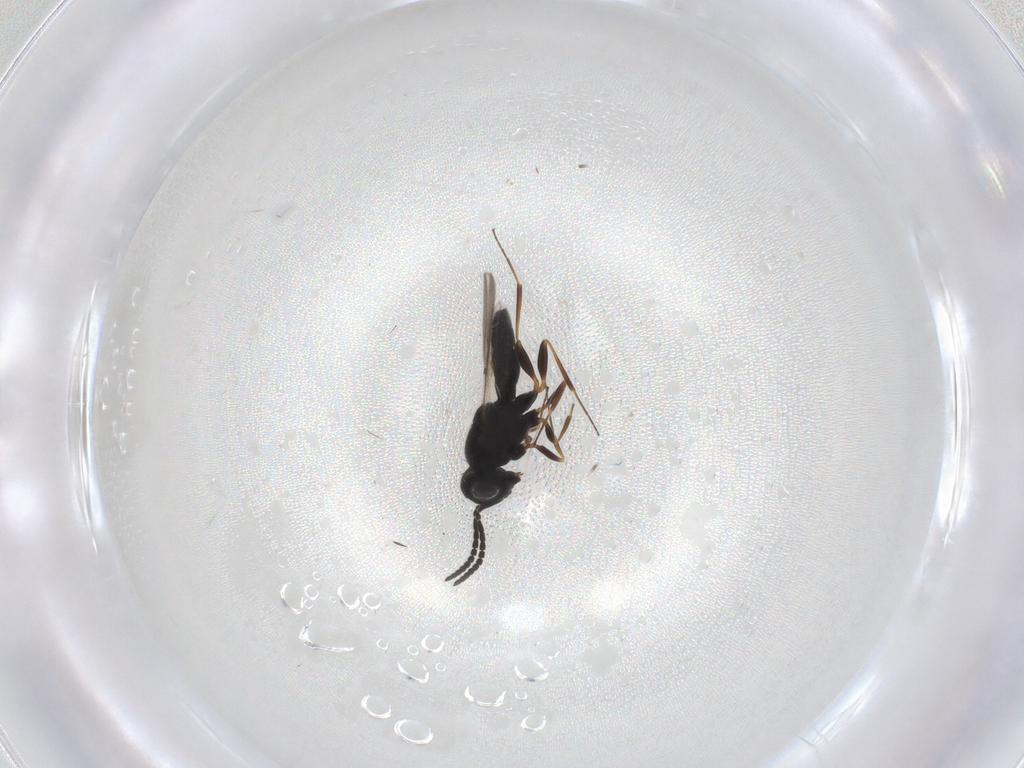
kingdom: Animalia
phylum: Arthropoda
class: Insecta
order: Hymenoptera
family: Scelionidae
